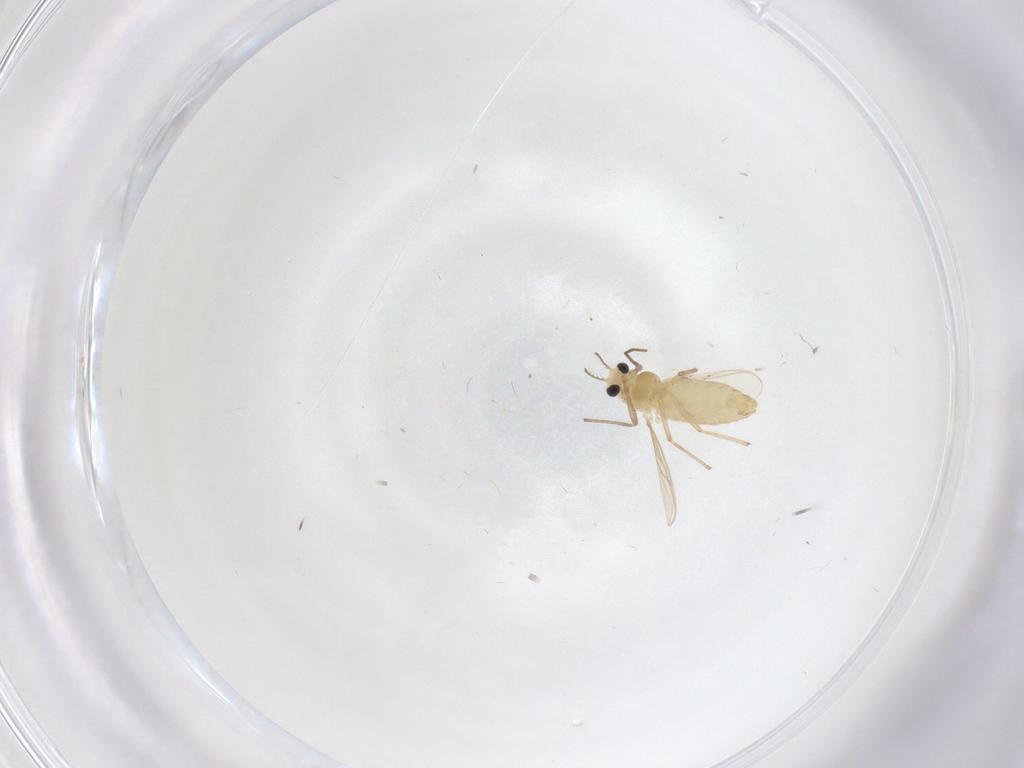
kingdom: Animalia
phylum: Arthropoda
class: Insecta
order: Diptera
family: Chironomidae
